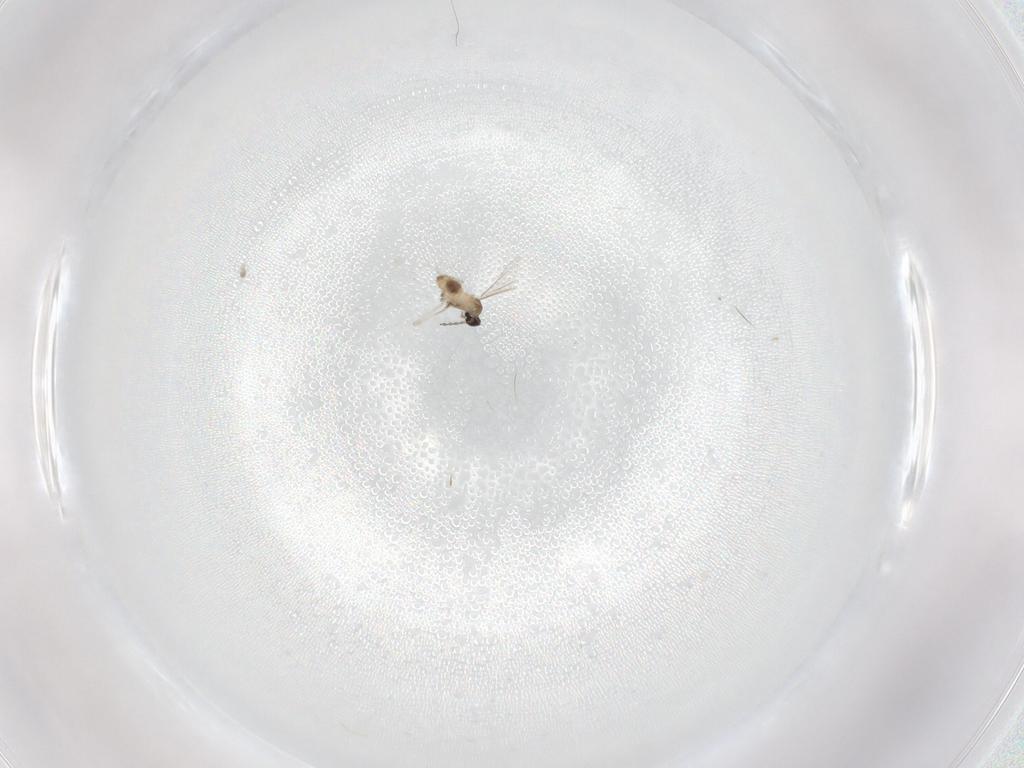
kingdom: Animalia
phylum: Arthropoda
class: Insecta
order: Diptera
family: Cecidomyiidae
